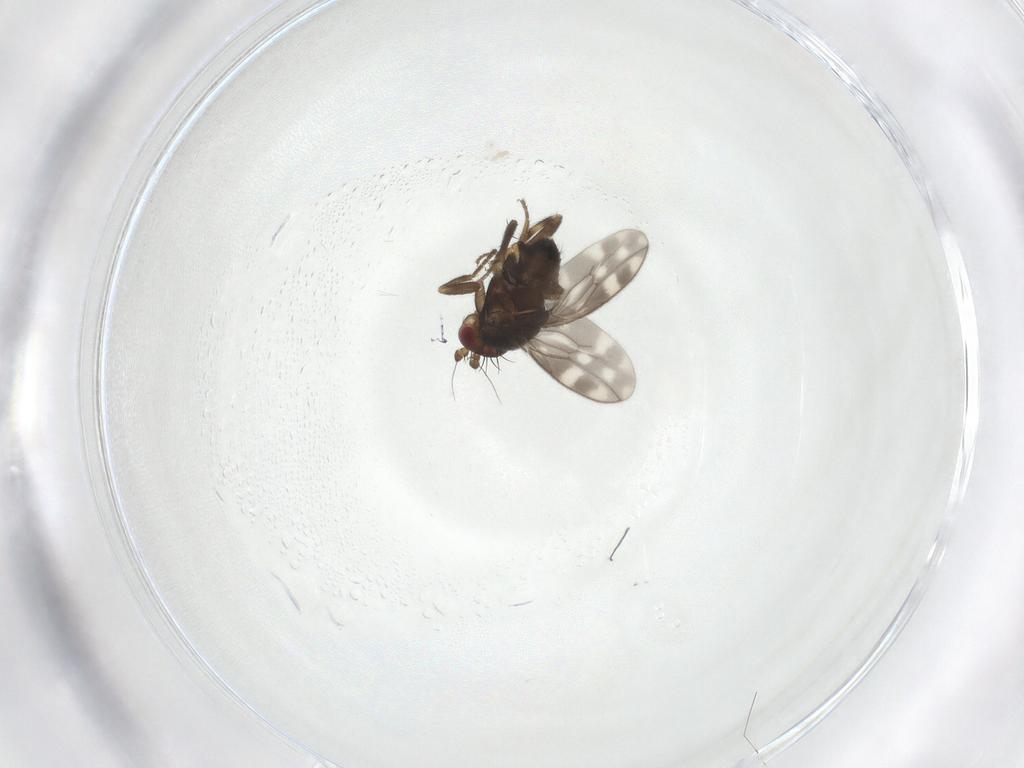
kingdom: Animalia
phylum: Arthropoda
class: Insecta
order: Diptera
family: Sphaeroceridae
